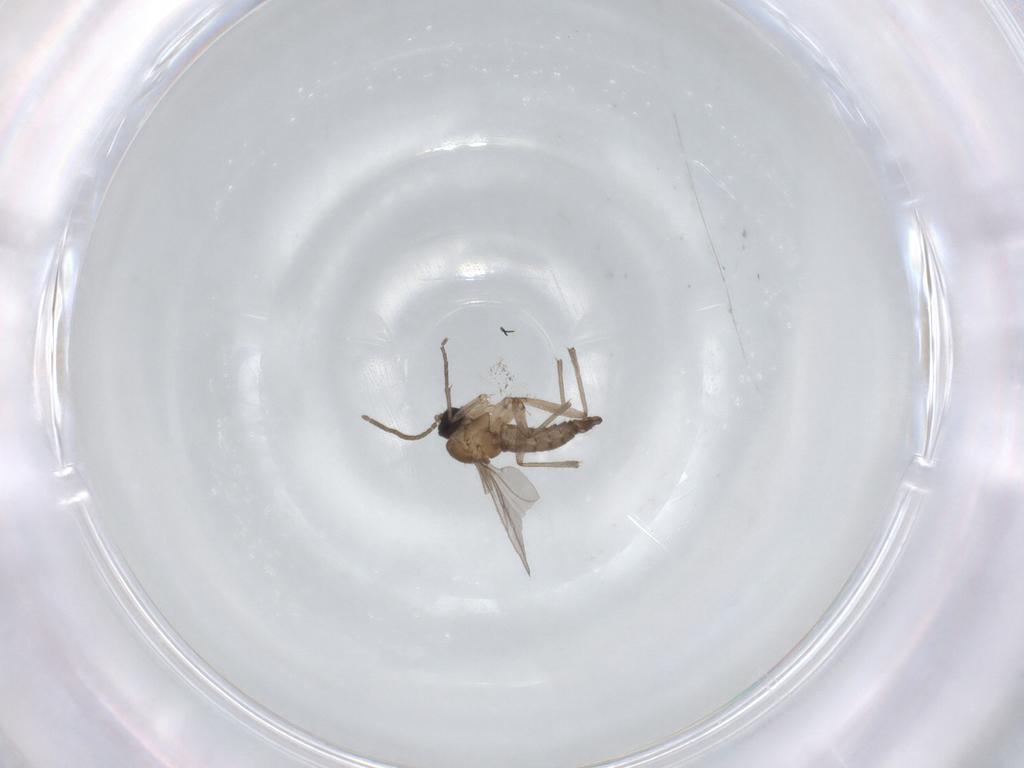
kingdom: Animalia
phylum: Arthropoda
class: Insecta
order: Diptera
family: Sciaridae
